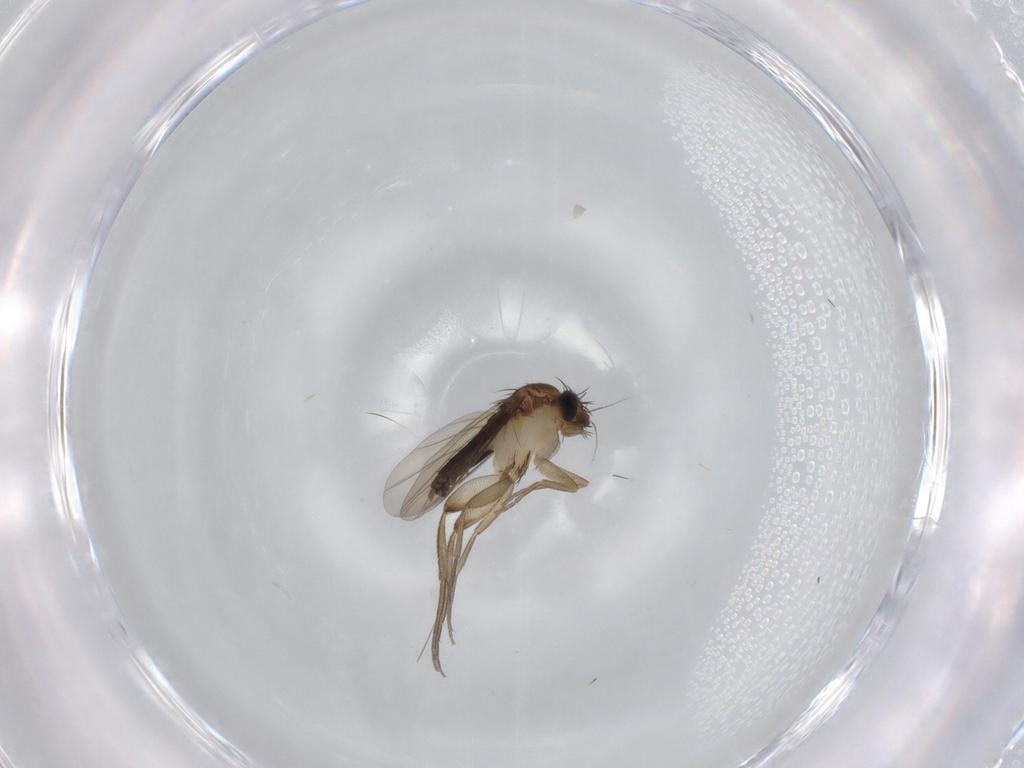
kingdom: Animalia
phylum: Arthropoda
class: Insecta
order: Diptera
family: Phoridae
